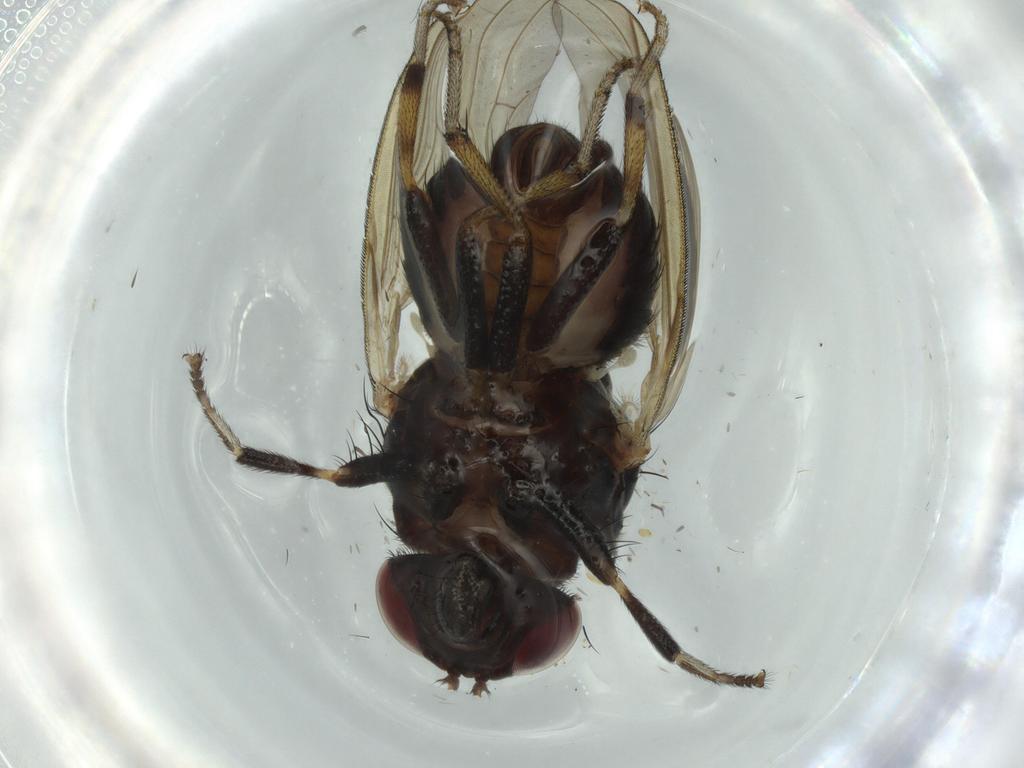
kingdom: Animalia
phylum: Arthropoda
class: Insecta
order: Diptera
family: Cecidomyiidae
